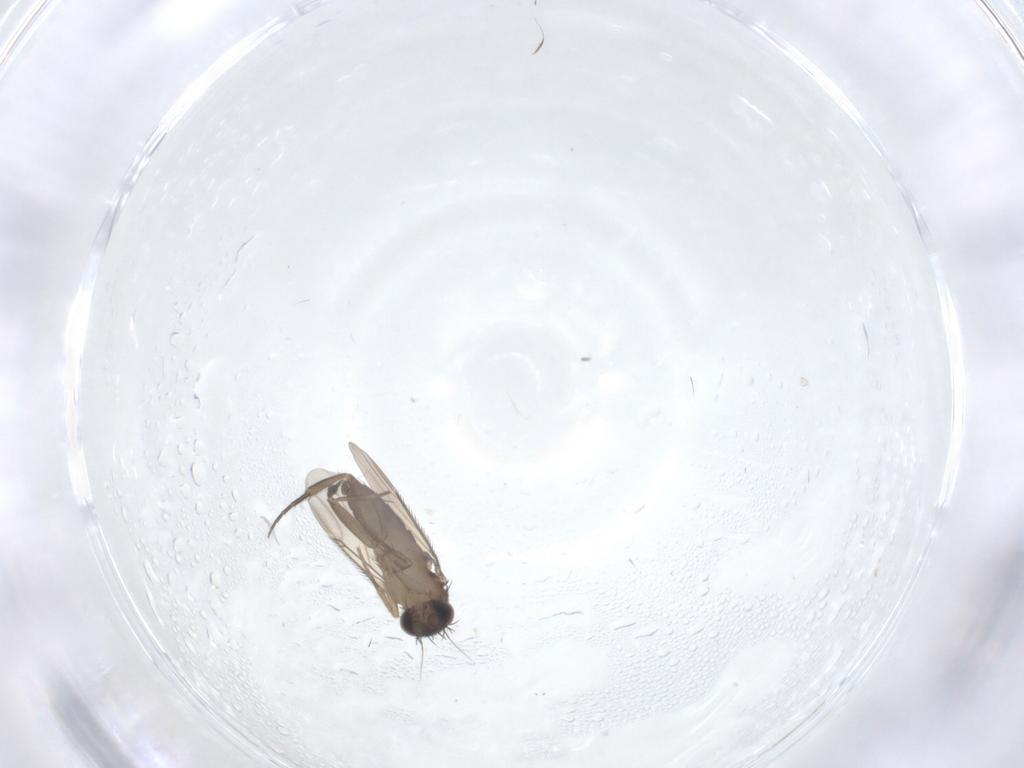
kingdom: Animalia
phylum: Arthropoda
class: Insecta
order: Diptera
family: Phoridae
